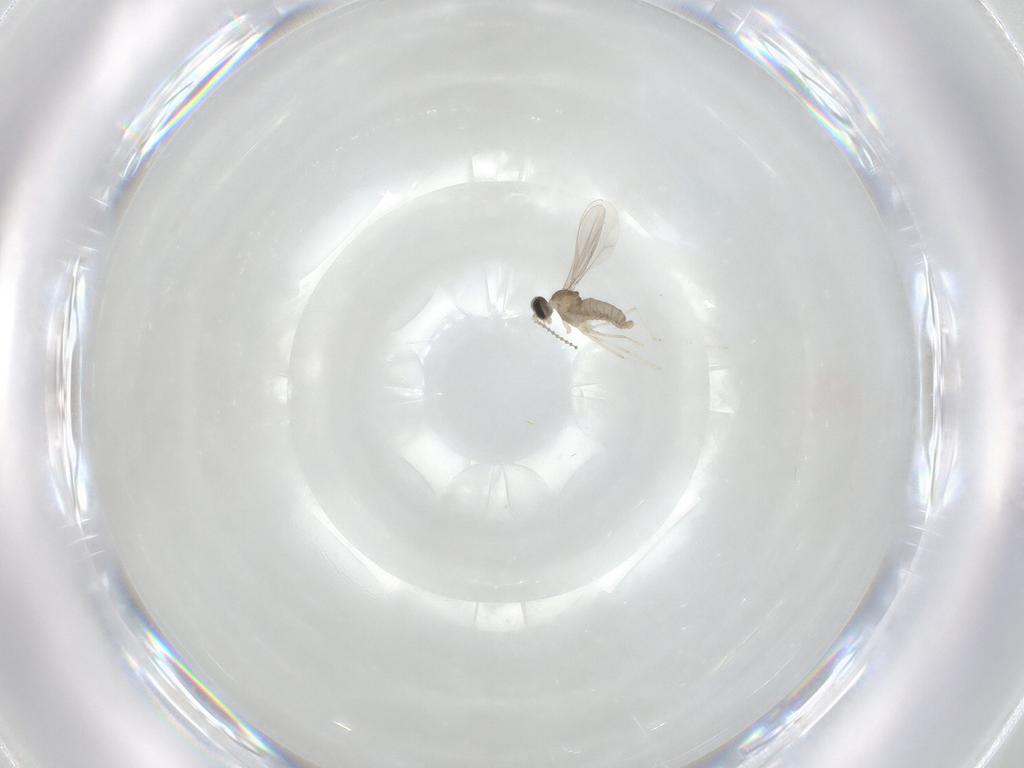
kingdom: Animalia
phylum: Arthropoda
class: Insecta
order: Diptera
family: Cecidomyiidae
